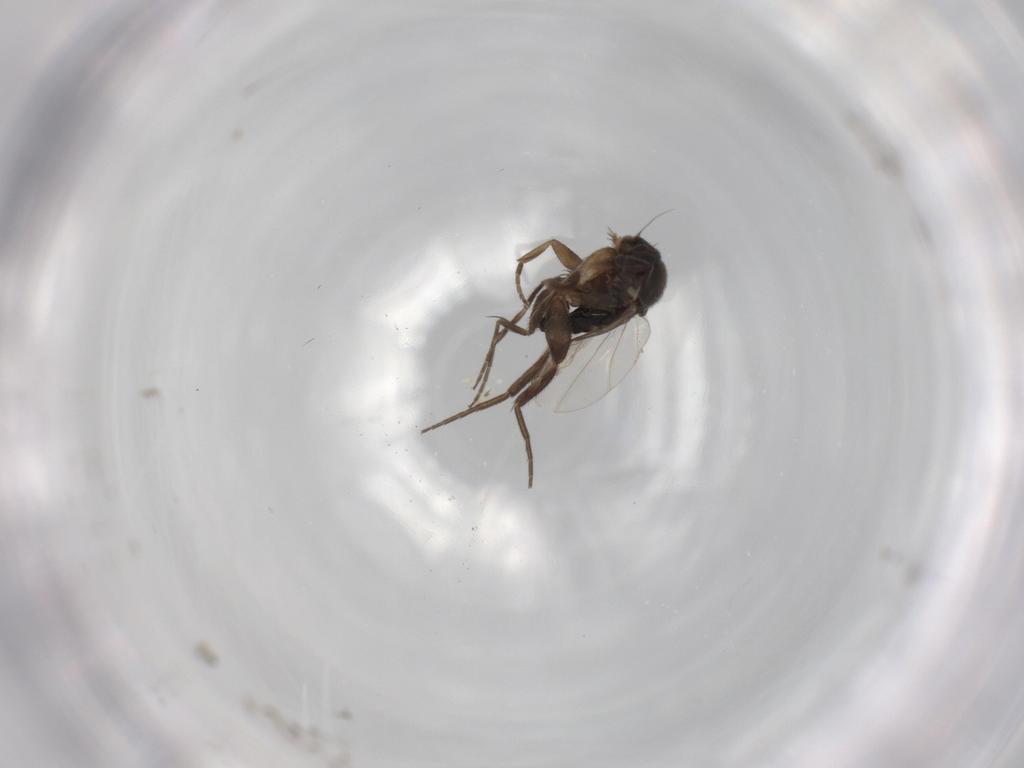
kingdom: Animalia
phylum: Arthropoda
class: Insecta
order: Diptera
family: Phoridae
